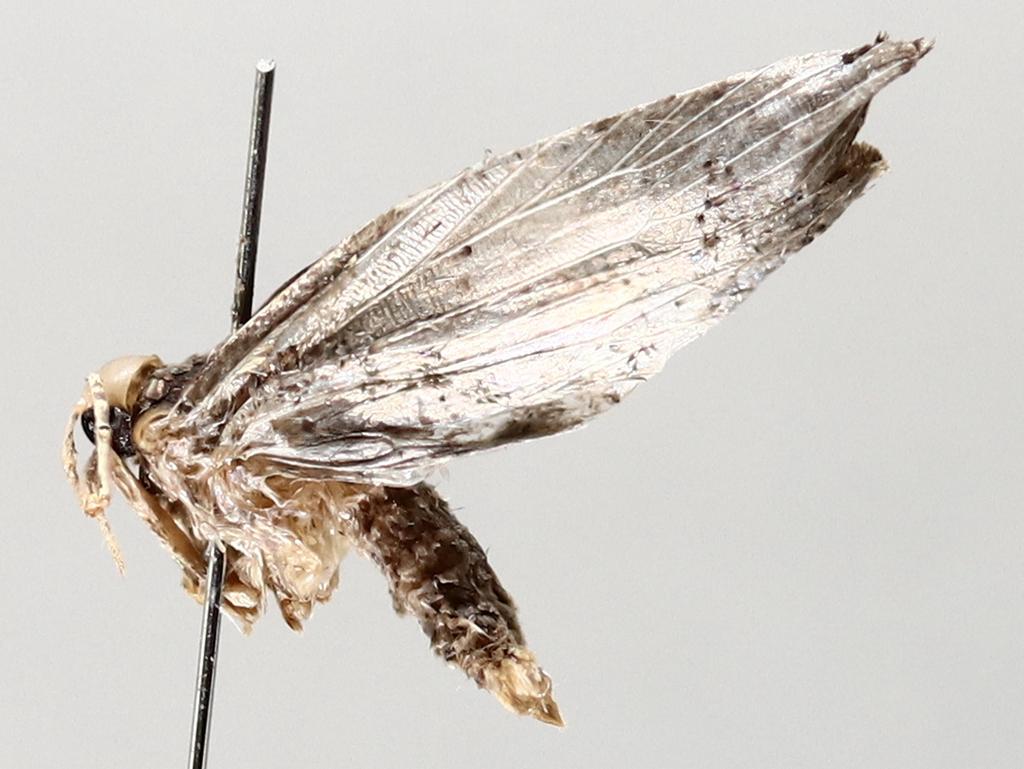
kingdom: Animalia
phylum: Arthropoda
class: Insecta
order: Diptera
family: Phoridae
